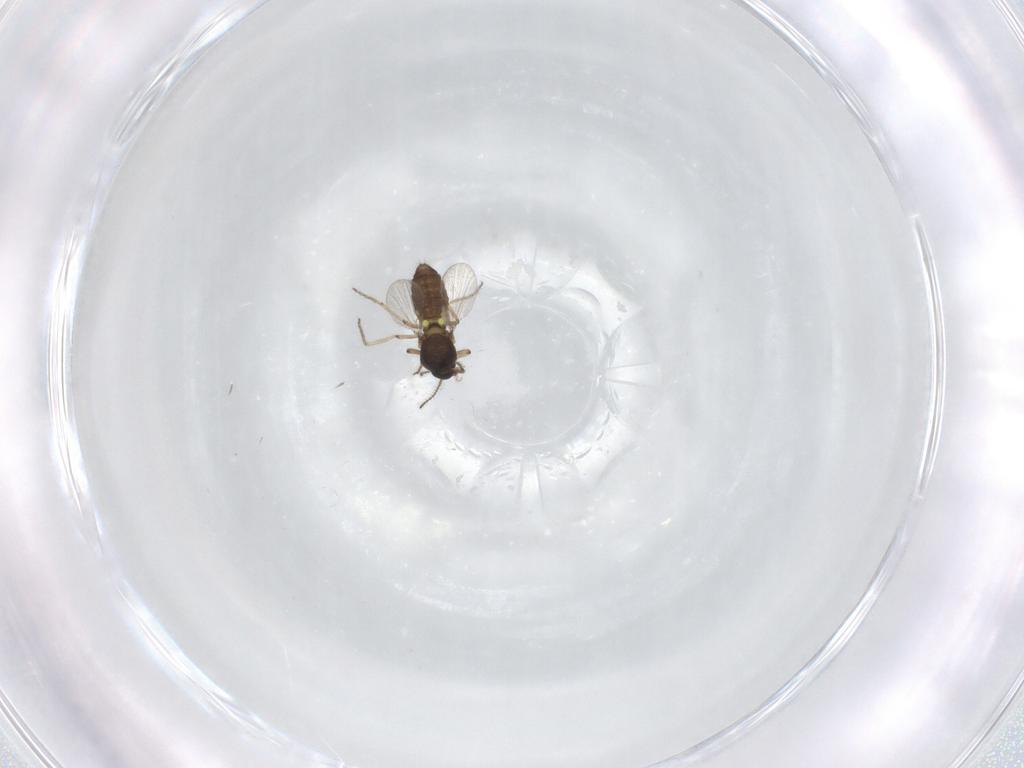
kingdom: Animalia
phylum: Arthropoda
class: Insecta
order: Diptera
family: Ceratopogonidae
